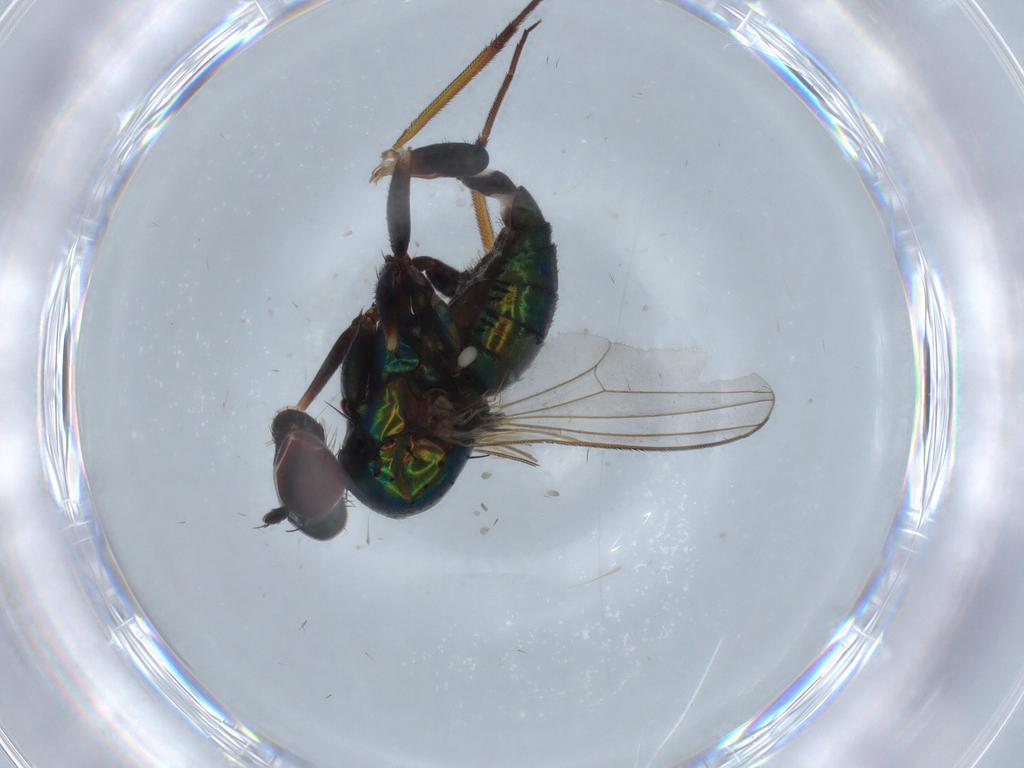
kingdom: Animalia
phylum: Arthropoda
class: Insecta
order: Diptera
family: Dolichopodidae
